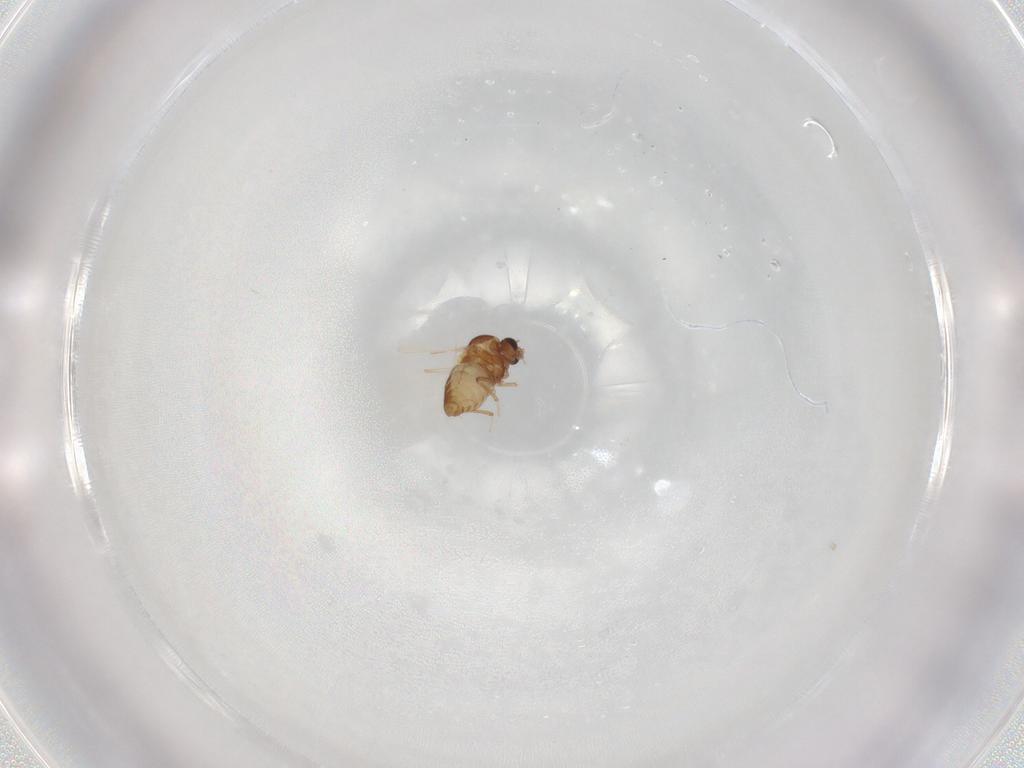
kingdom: Animalia
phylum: Arthropoda
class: Insecta
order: Diptera
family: Ceratopogonidae
